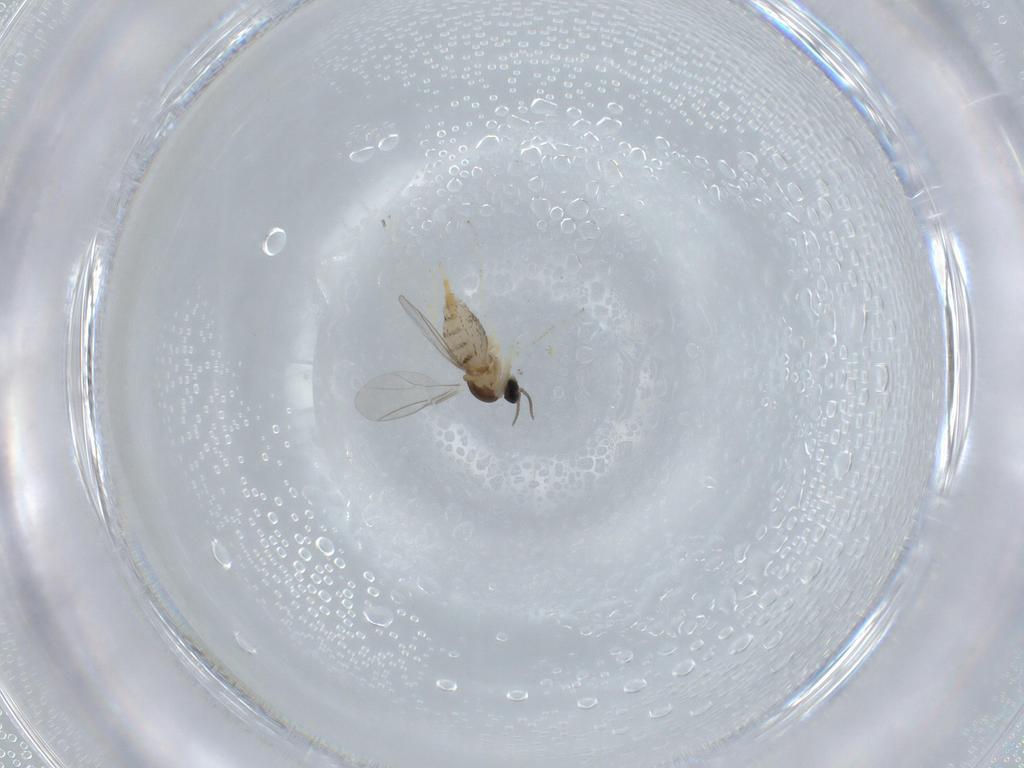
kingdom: Animalia
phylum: Arthropoda
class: Insecta
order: Diptera
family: Cecidomyiidae
